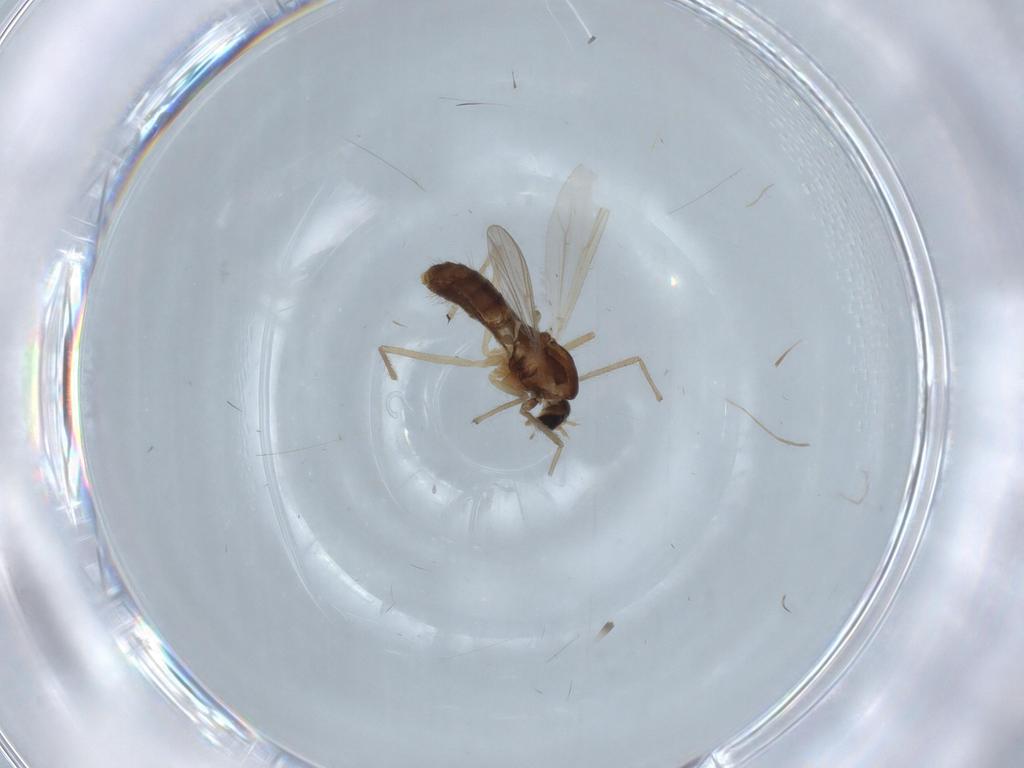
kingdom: Animalia
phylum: Arthropoda
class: Insecta
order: Diptera
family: Chironomidae
